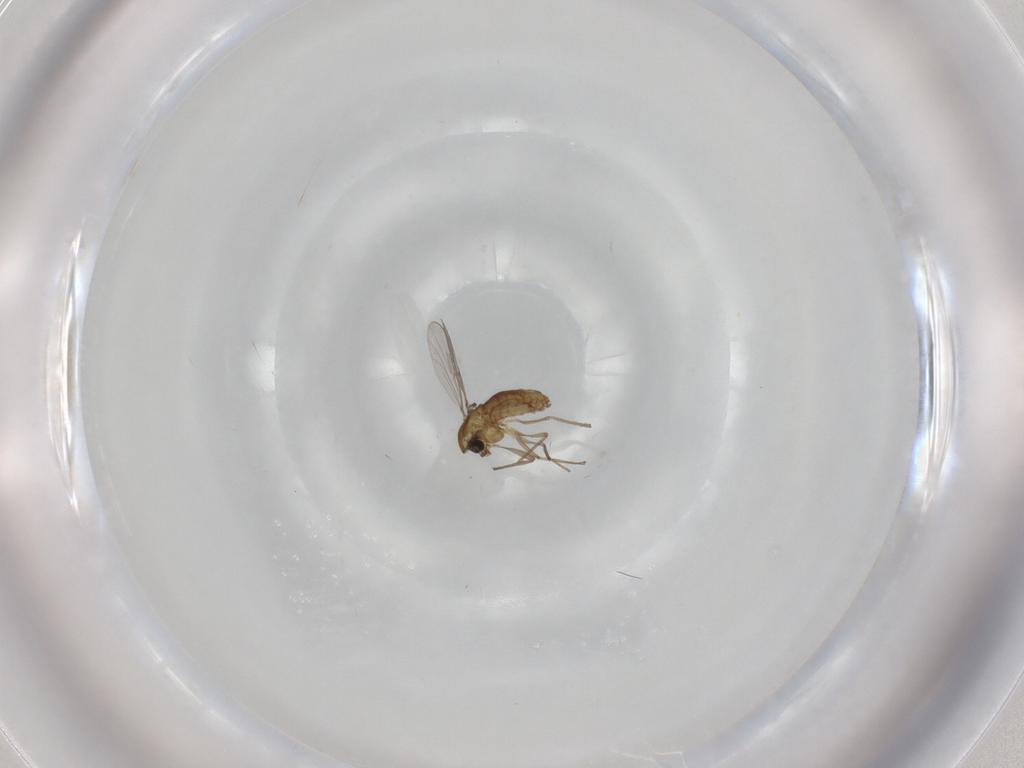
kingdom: Animalia
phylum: Arthropoda
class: Insecta
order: Diptera
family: Chironomidae
